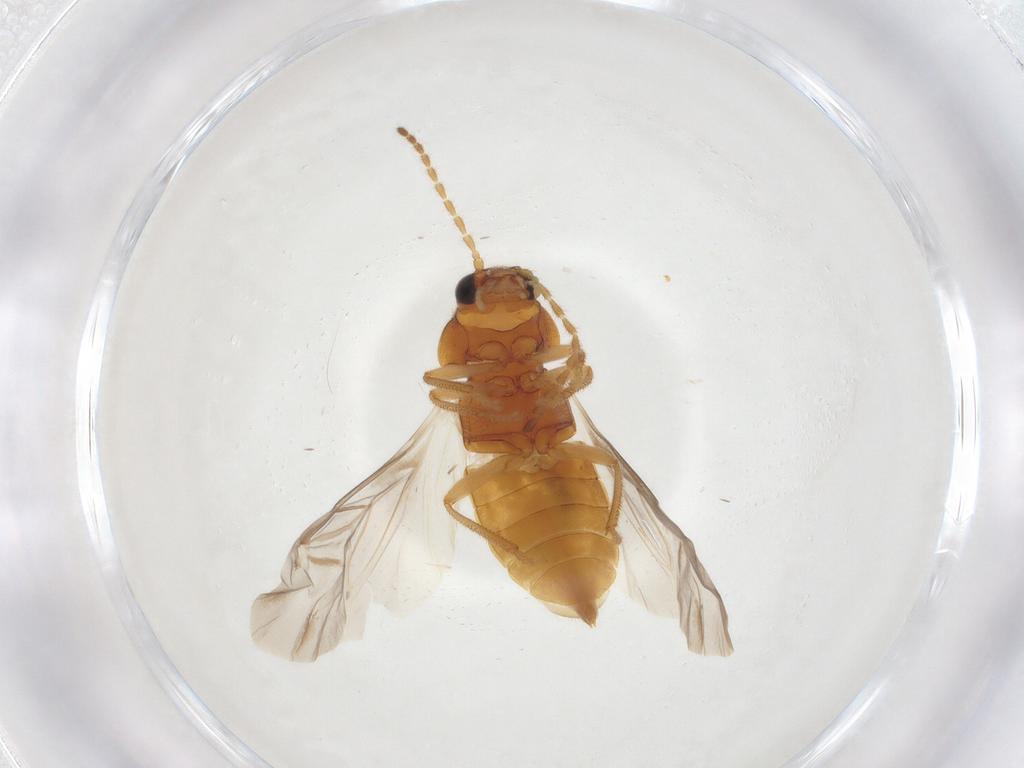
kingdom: Animalia
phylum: Arthropoda
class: Insecta
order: Coleoptera
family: Ptilodactylidae
